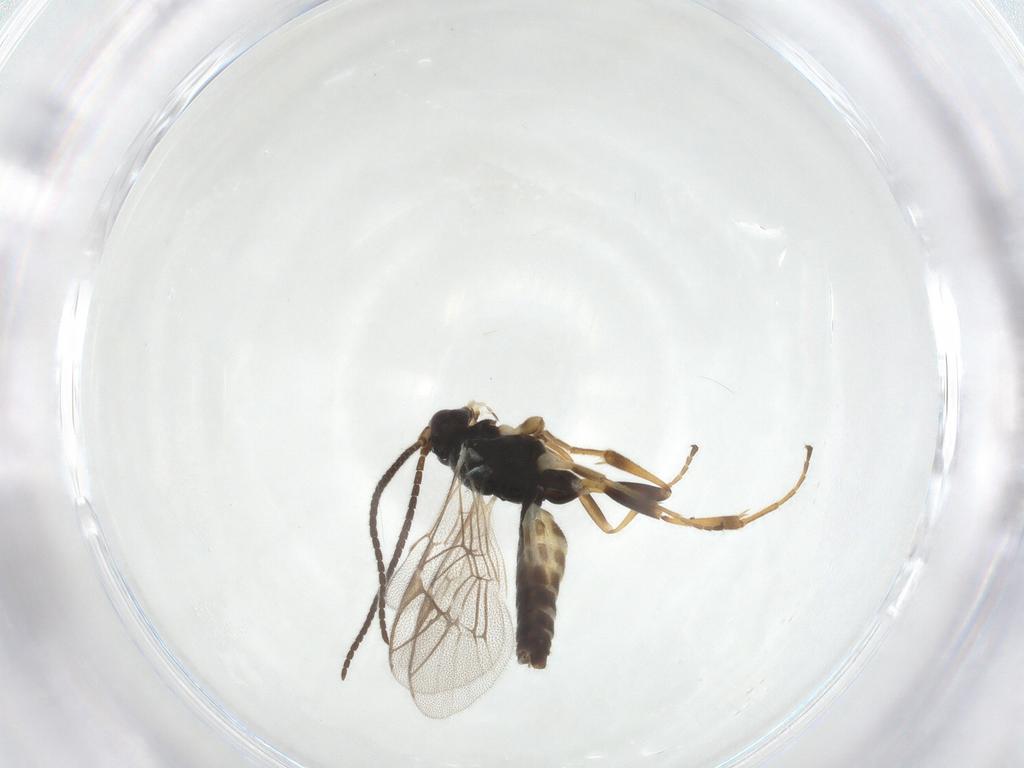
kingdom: Animalia
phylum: Arthropoda
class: Insecta
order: Hymenoptera
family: Ichneumonidae
